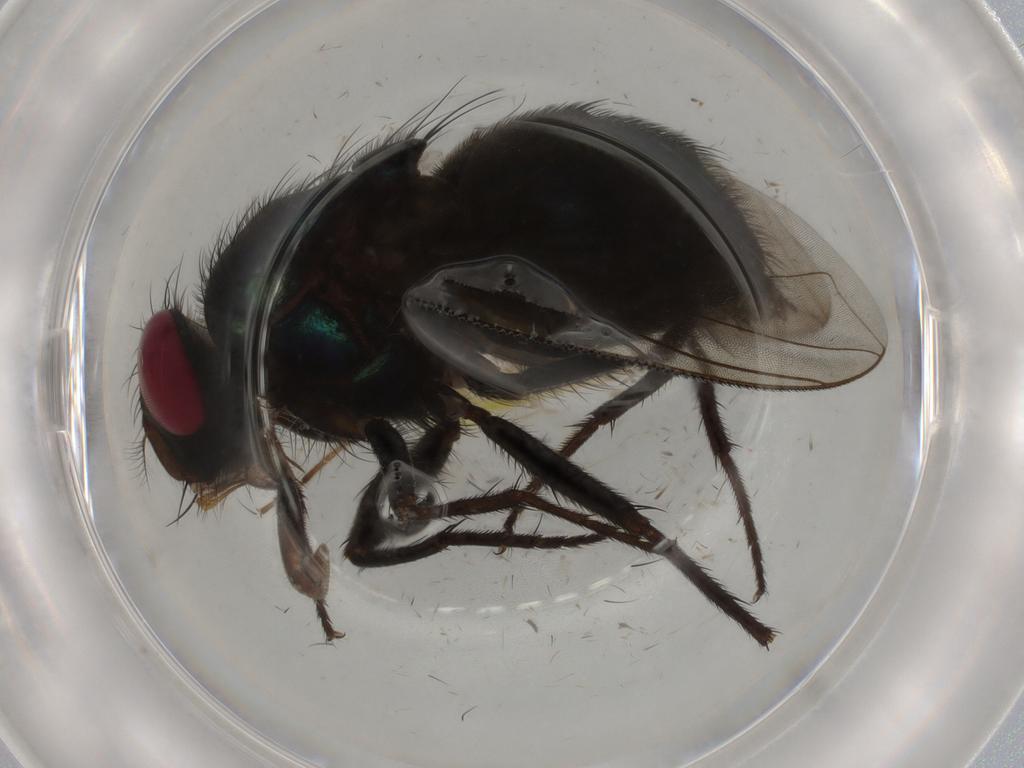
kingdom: Animalia
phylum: Arthropoda
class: Insecta
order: Diptera
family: Calliphoridae
